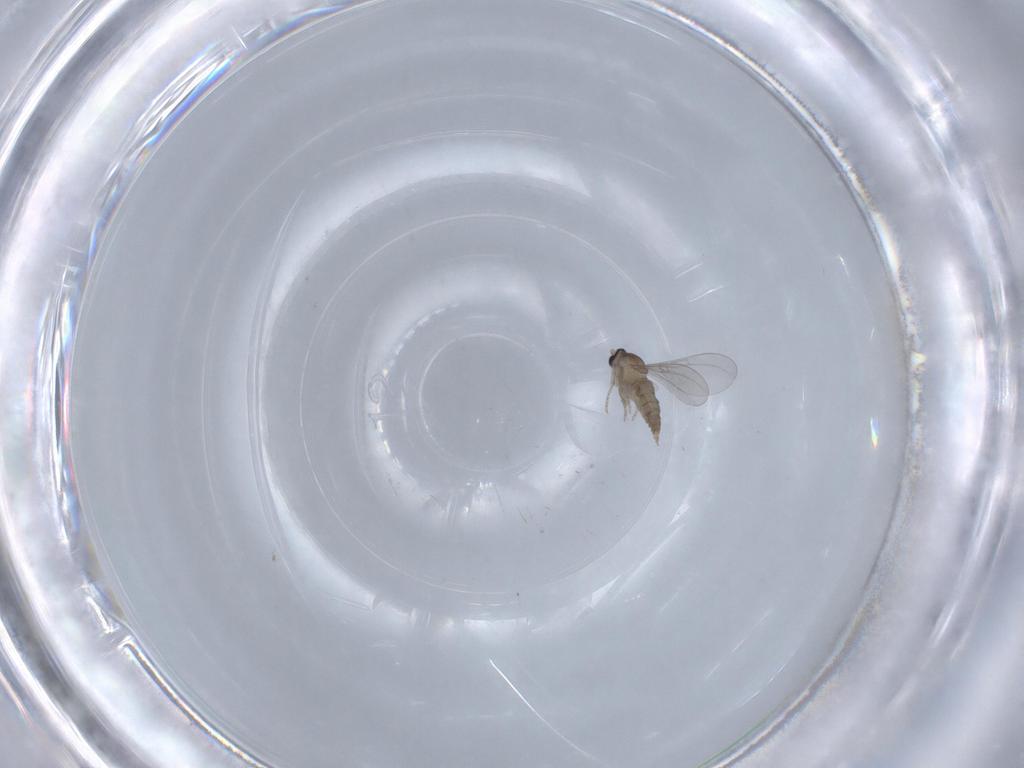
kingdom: Animalia
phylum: Arthropoda
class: Insecta
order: Diptera
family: Cecidomyiidae
